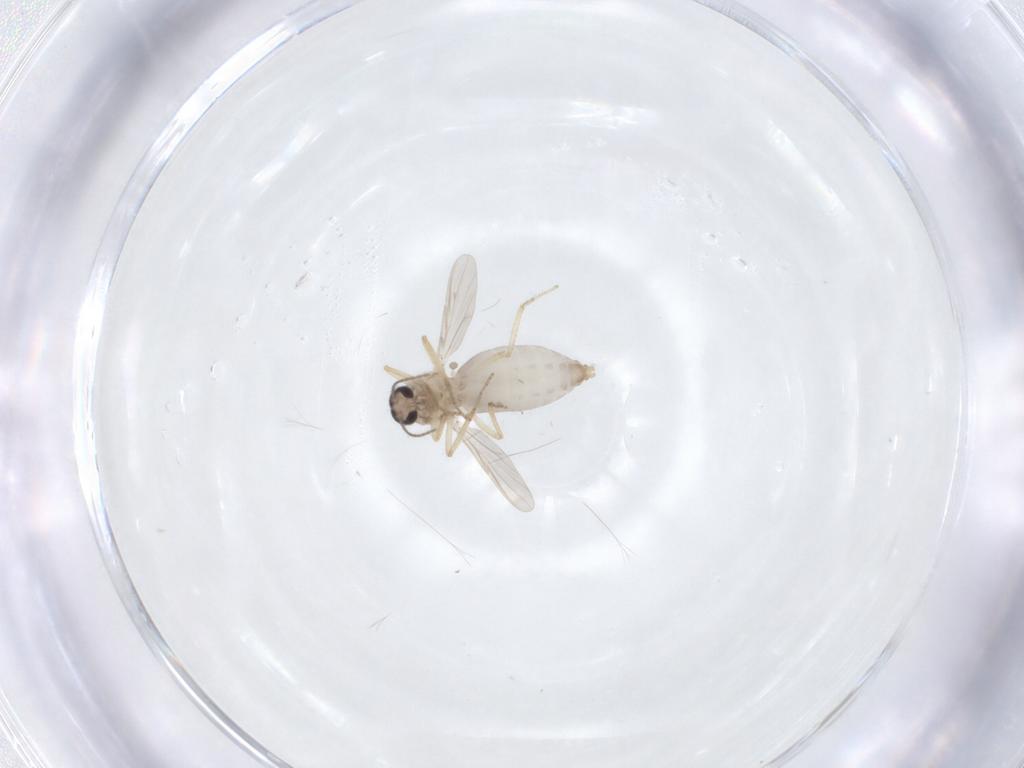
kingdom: Animalia
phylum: Arthropoda
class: Insecta
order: Diptera
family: Ceratopogonidae
